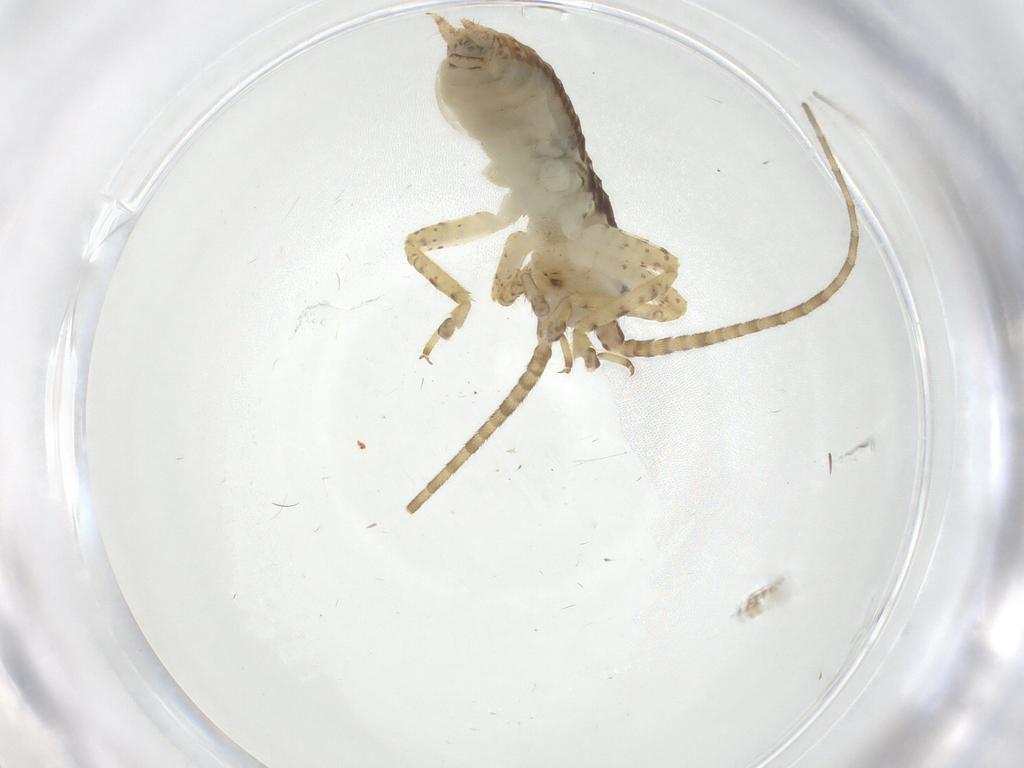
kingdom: Animalia
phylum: Arthropoda
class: Insecta
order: Orthoptera
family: Gryllidae
